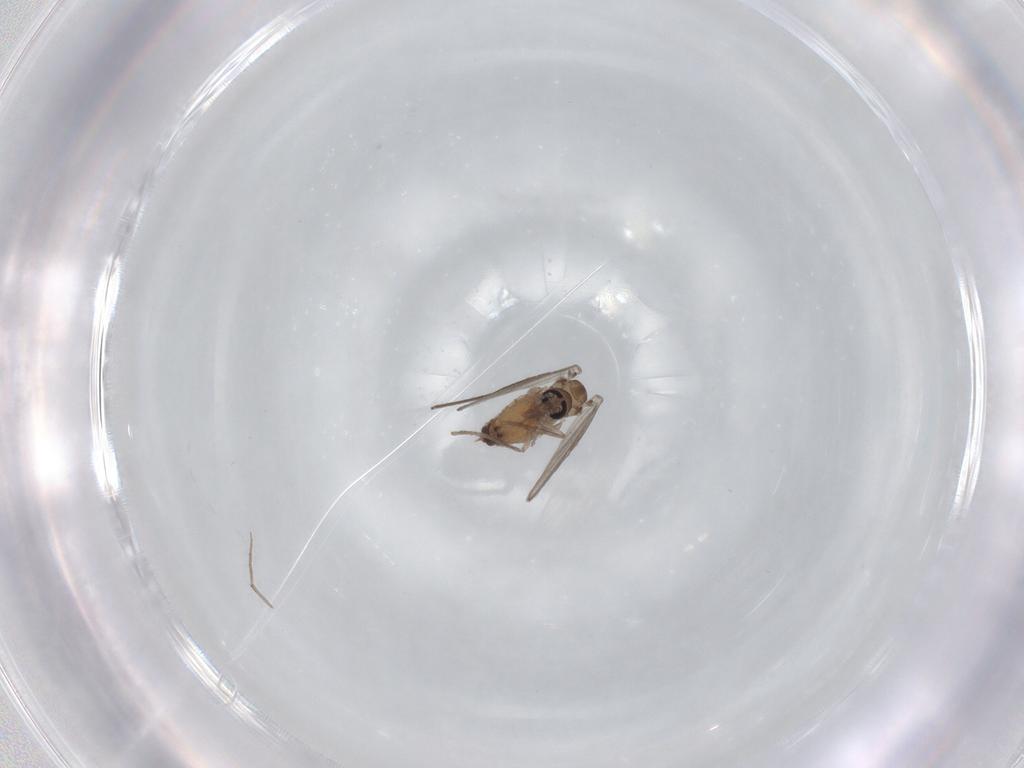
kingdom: Animalia
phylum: Arthropoda
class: Insecta
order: Diptera
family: Psychodidae
